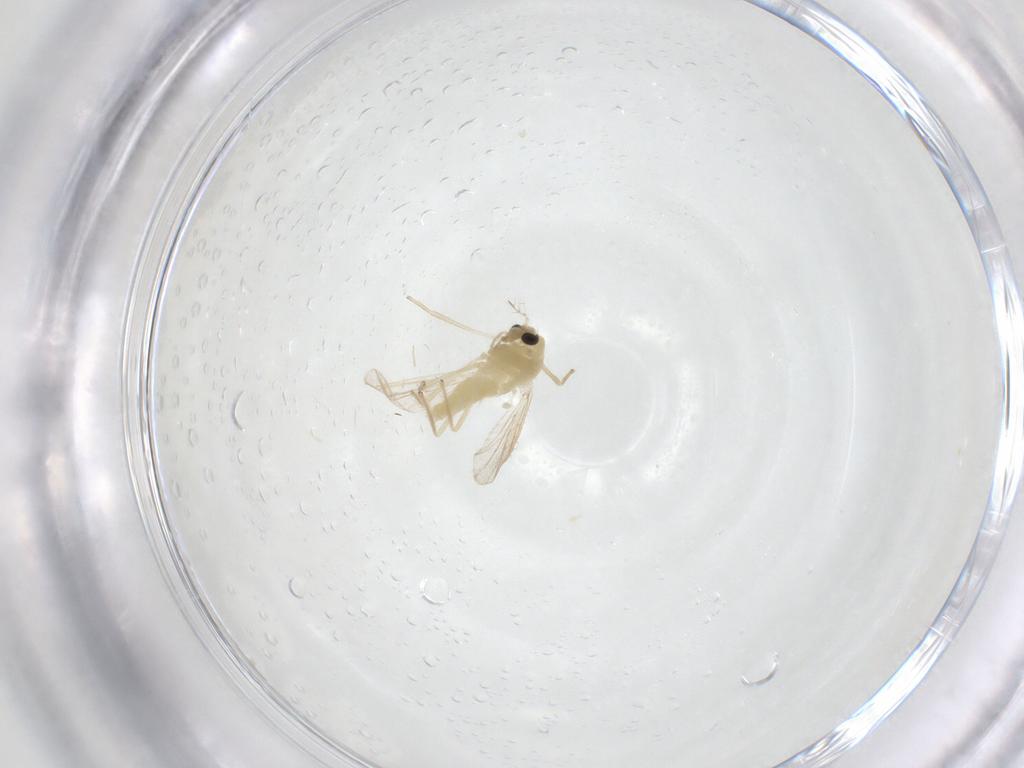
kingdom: Animalia
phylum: Arthropoda
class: Insecta
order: Diptera
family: Chironomidae
